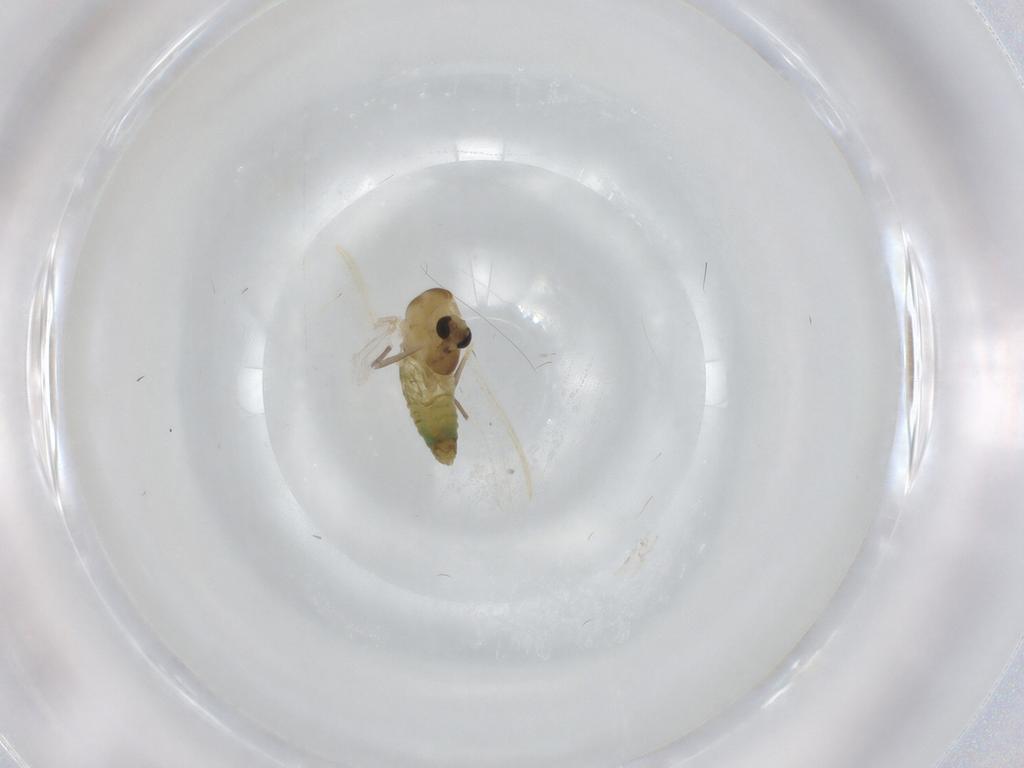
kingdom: Animalia
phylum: Arthropoda
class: Insecta
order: Diptera
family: Chironomidae
